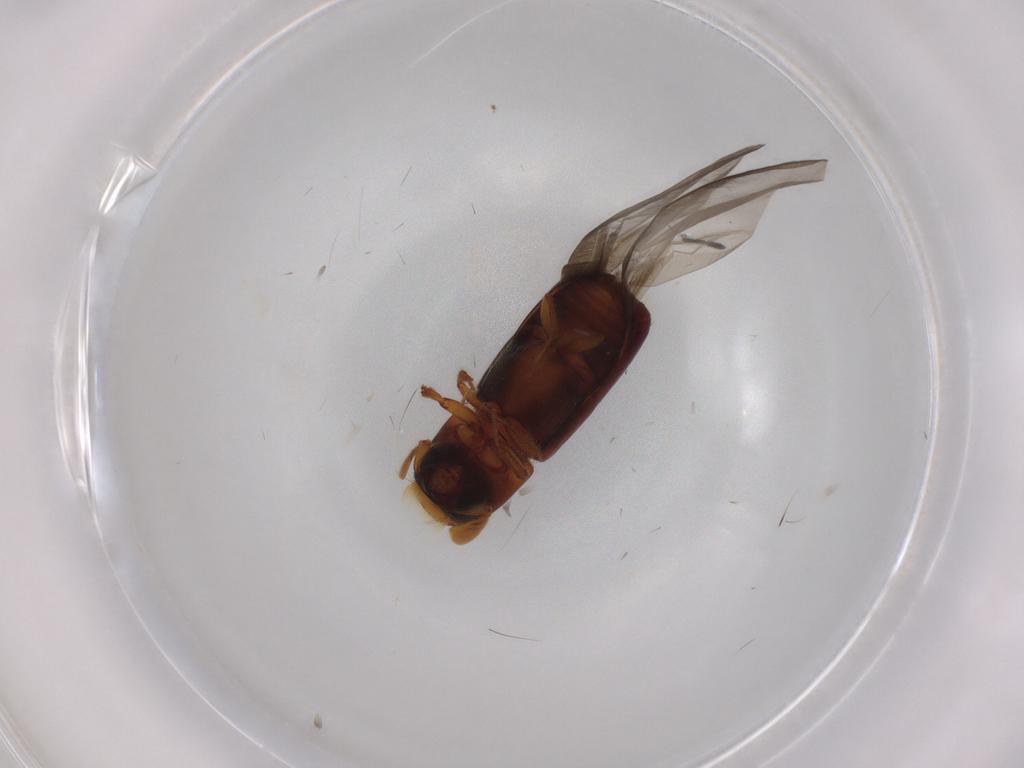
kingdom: Animalia
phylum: Arthropoda
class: Insecta
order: Coleoptera
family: Curculionidae
